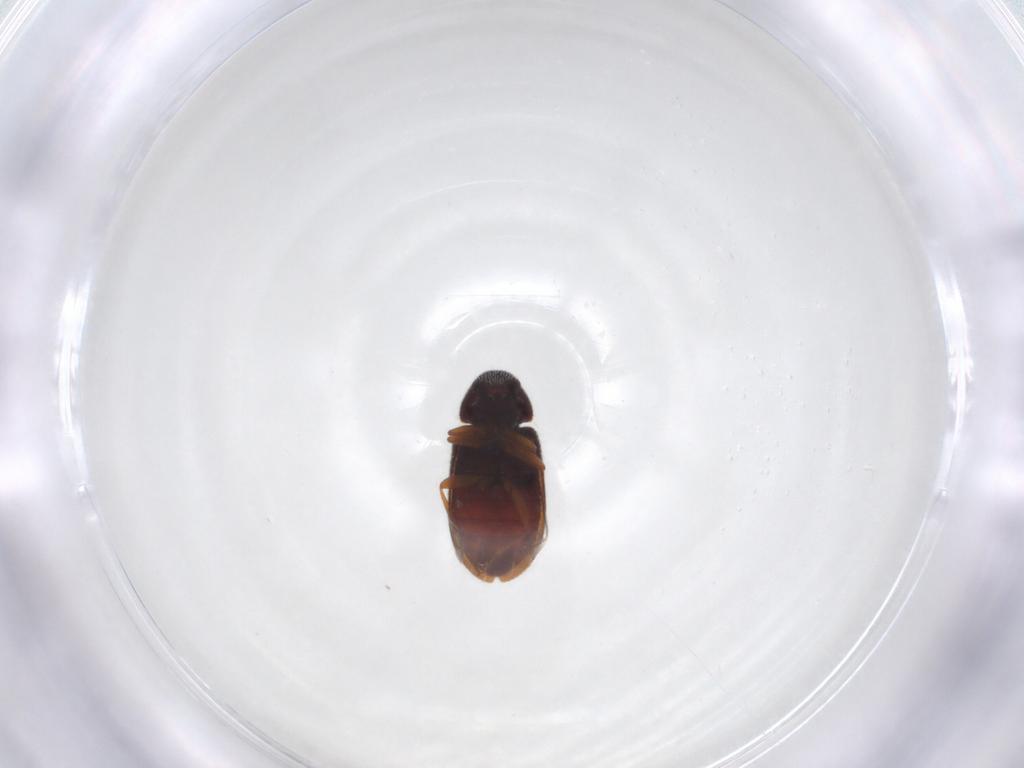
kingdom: Animalia
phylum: Arthropoda
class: Insecta
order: Coleoptera
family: Rhadalidae
